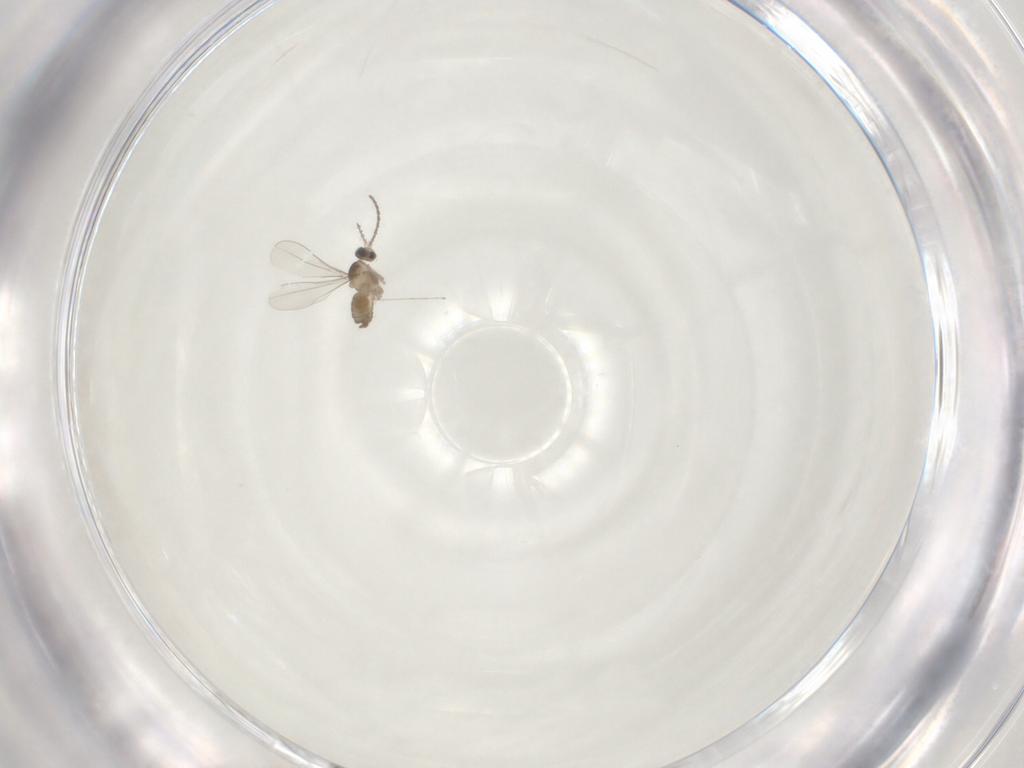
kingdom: Animalia
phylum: Arthropoda
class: Insecta
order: Diptera
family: Cecidomyiidae
